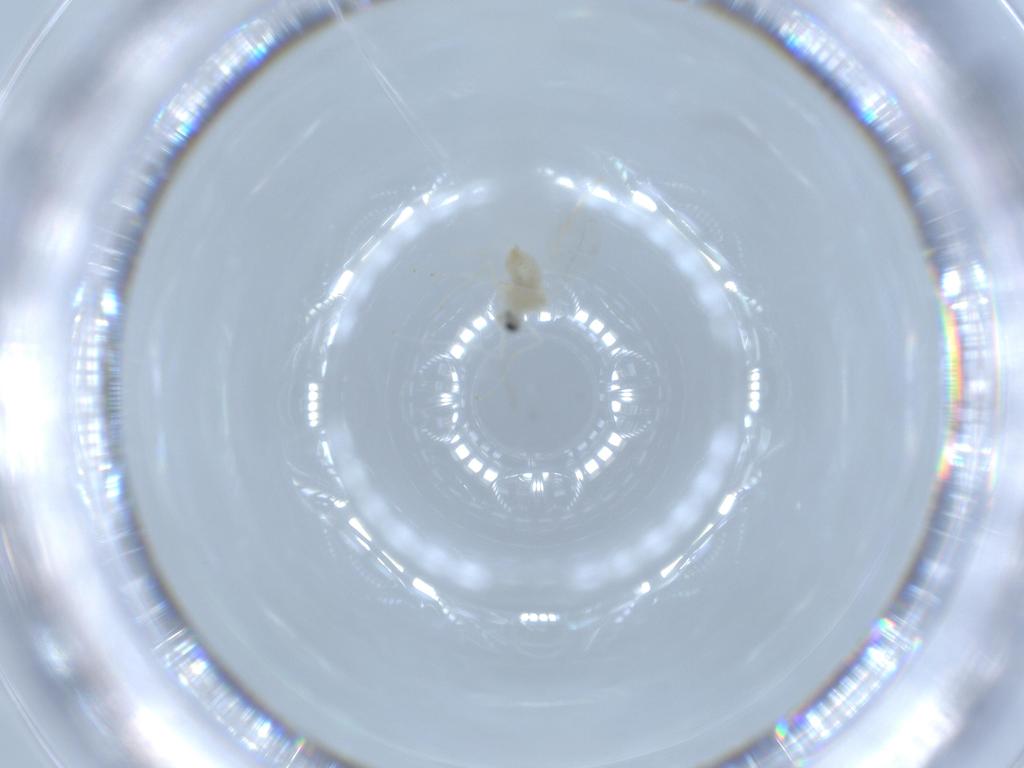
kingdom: Animalia
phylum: Arthropoda
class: Insecta
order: Diptera
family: Cecidomyiidae
